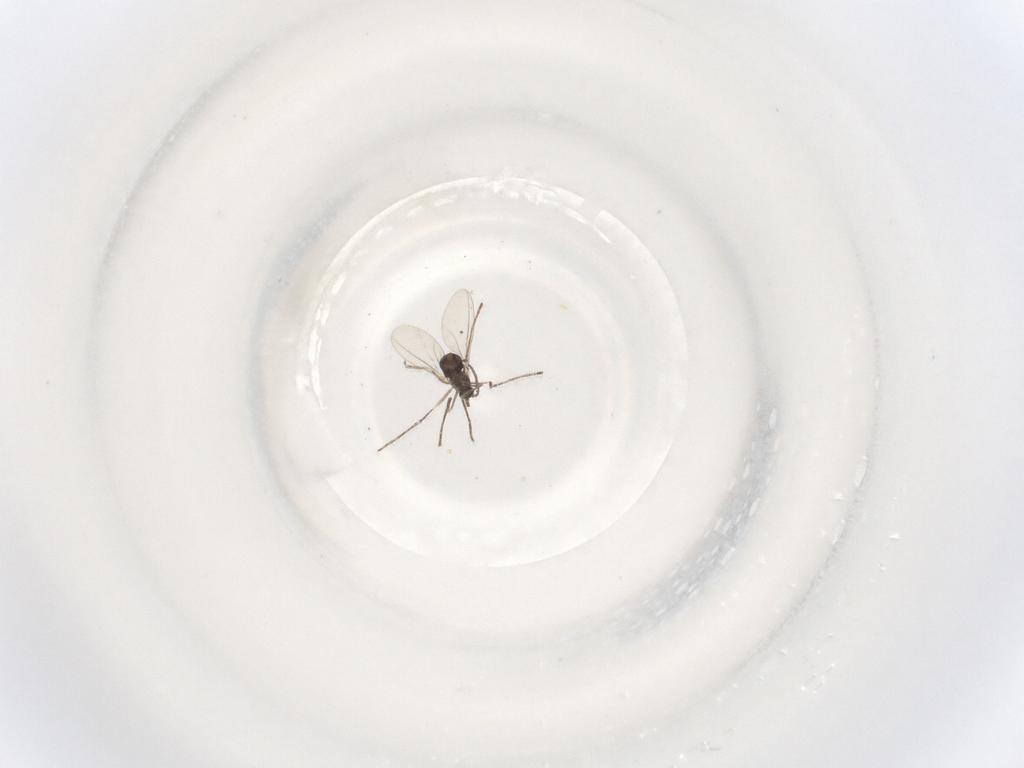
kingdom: Animalia
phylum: Arthropoda
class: Insecta
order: Diptera
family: Cecidomyiidae
